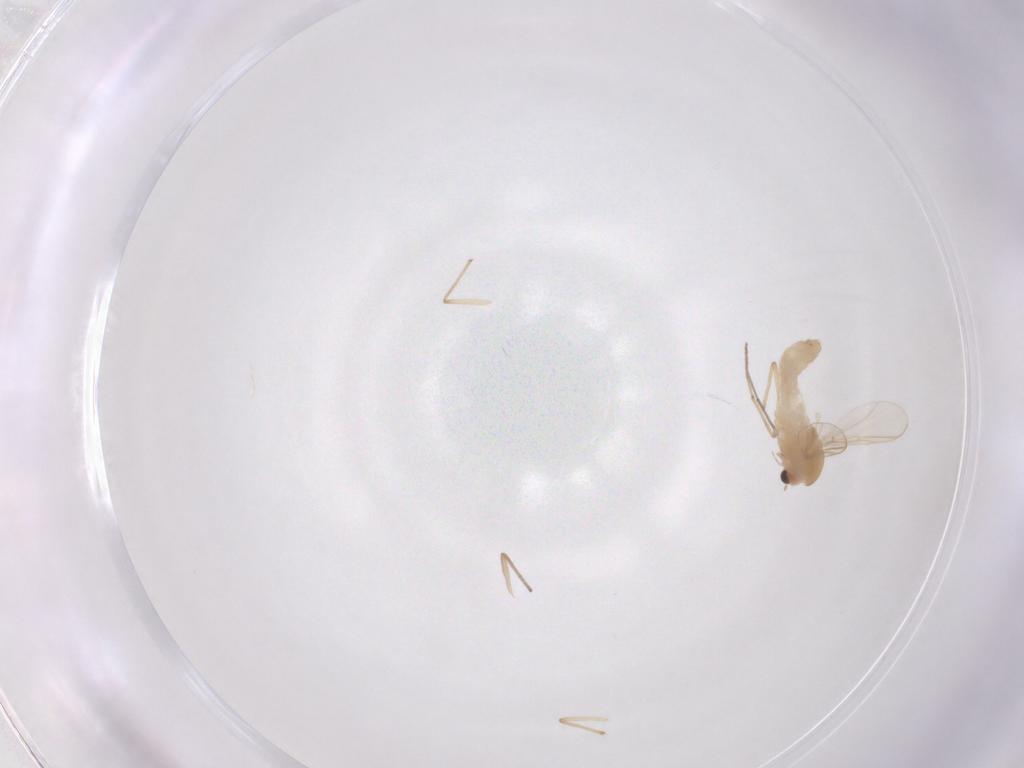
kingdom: Animalia
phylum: Arthropoda
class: Insecta
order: Diptera
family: Chironomidae
